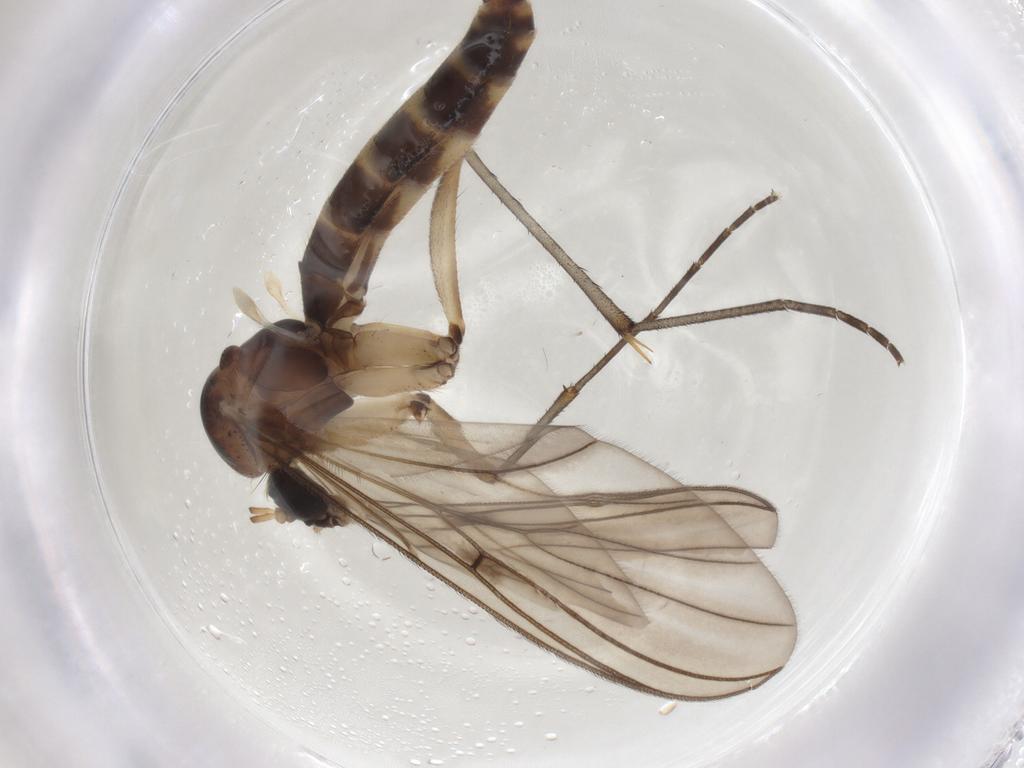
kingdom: Animalia
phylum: Arthropoda
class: Insecta
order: Diptera
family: Mycetophilidae
